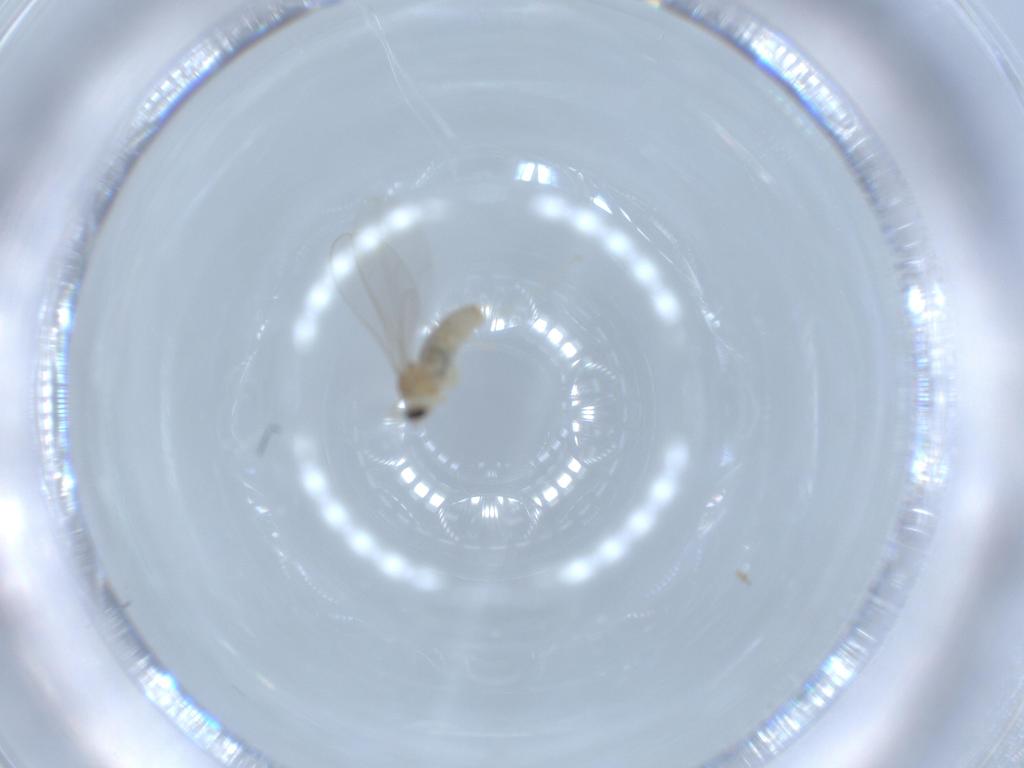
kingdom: Animalia
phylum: Arthropoda
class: Insecta
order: Diptera
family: Cecidomyiidae
